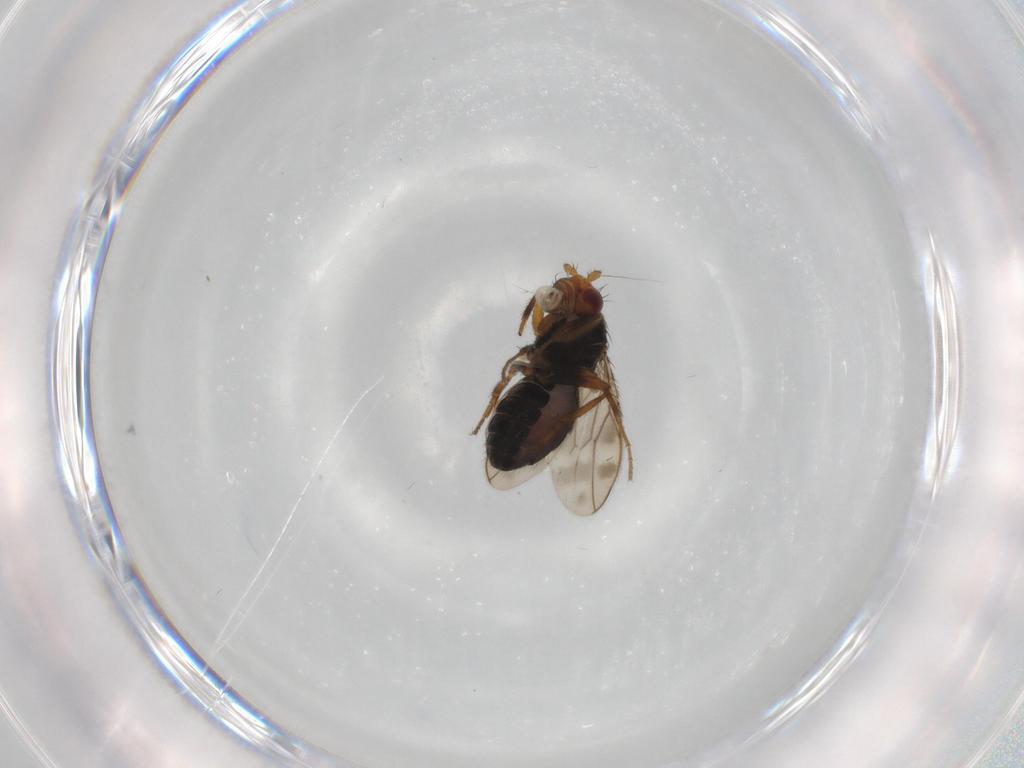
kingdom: Animalia
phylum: Arthropoda
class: Insecta
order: Diptera
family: Sphaeroceridae
